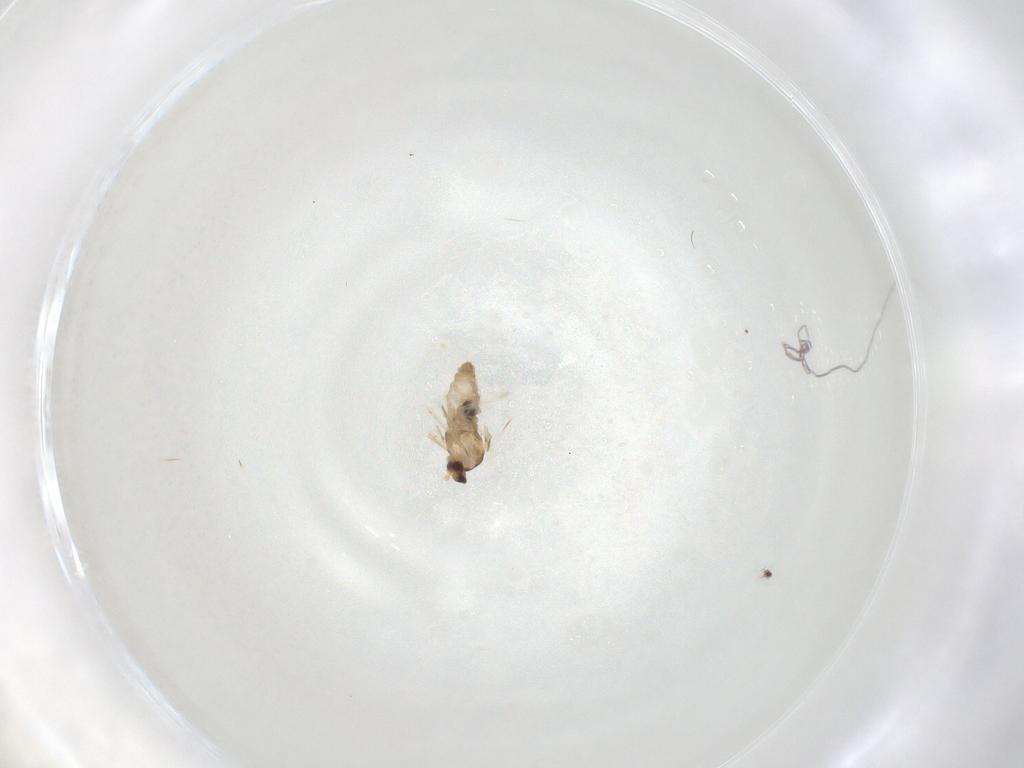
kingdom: Animalia
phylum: Arthropoda
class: Insecta
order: Diptera
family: Cecidomyiidae
